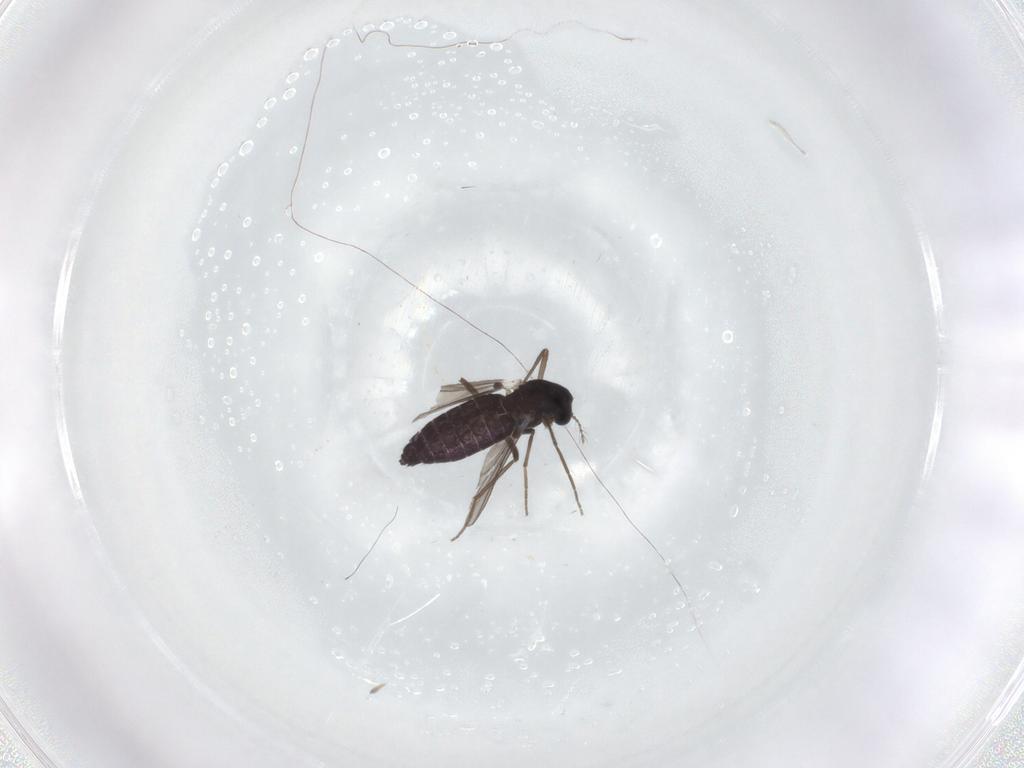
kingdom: Animalia
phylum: Arthropoda
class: Insecta
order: Diptera
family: Chironomidae
